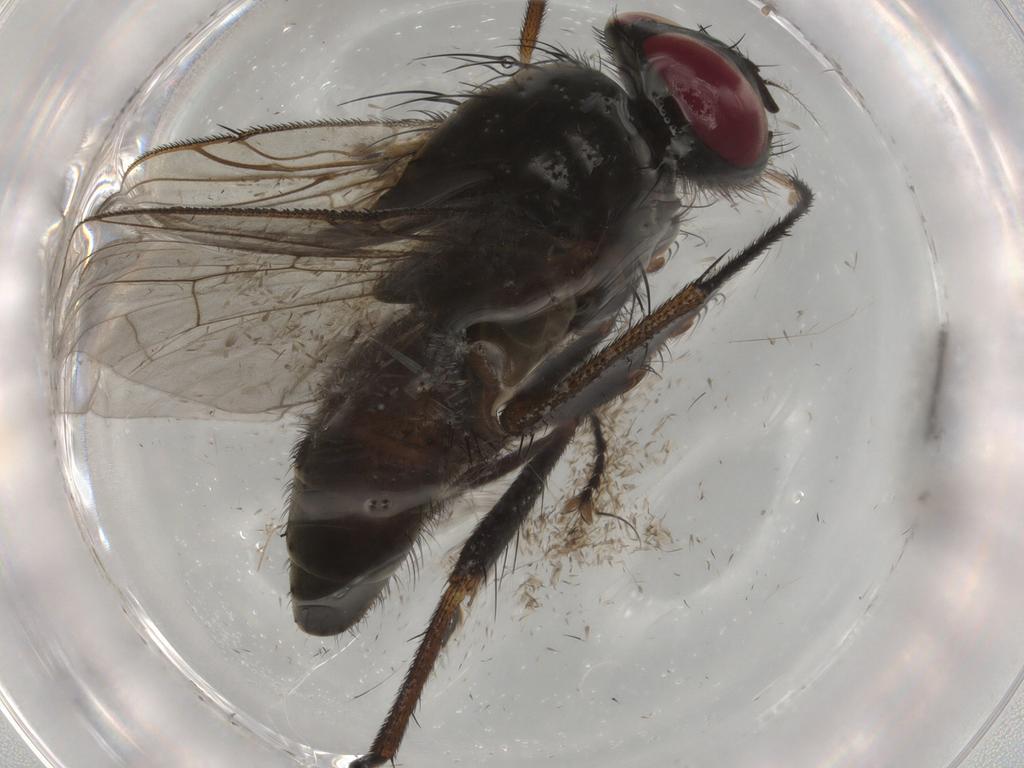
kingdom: Animalia
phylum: Arthropoda
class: Insecta
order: Diptera
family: Muscidae
